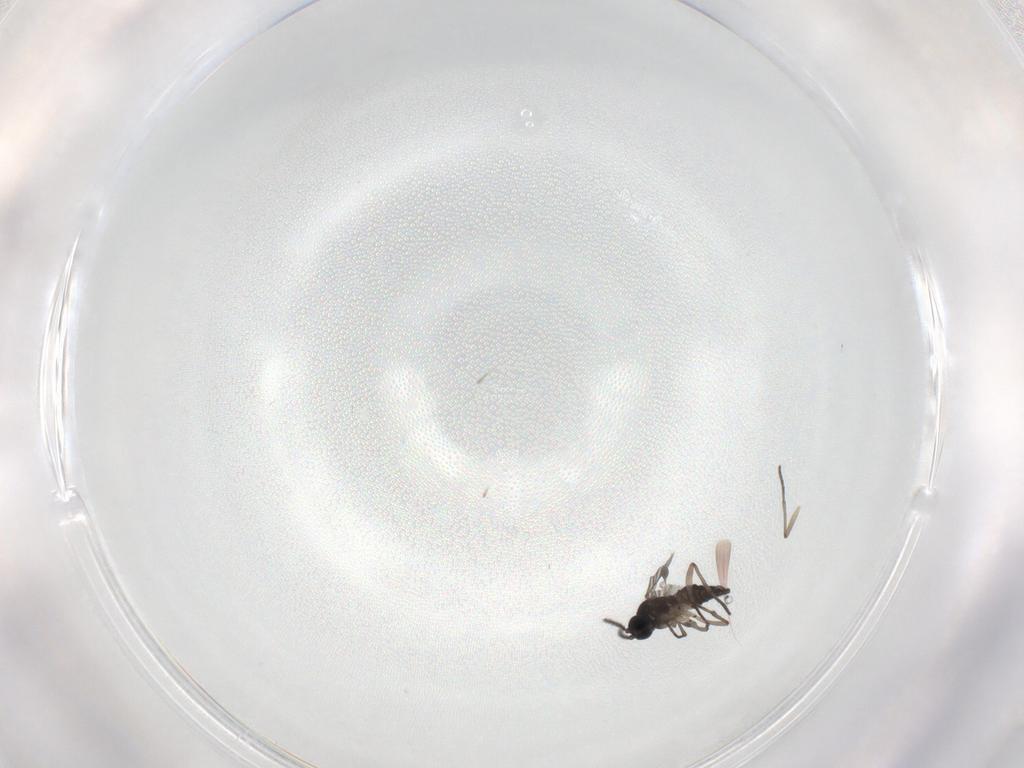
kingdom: Animalia
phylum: Arthropoda
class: Insecta
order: Diptera
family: Sciaridae
